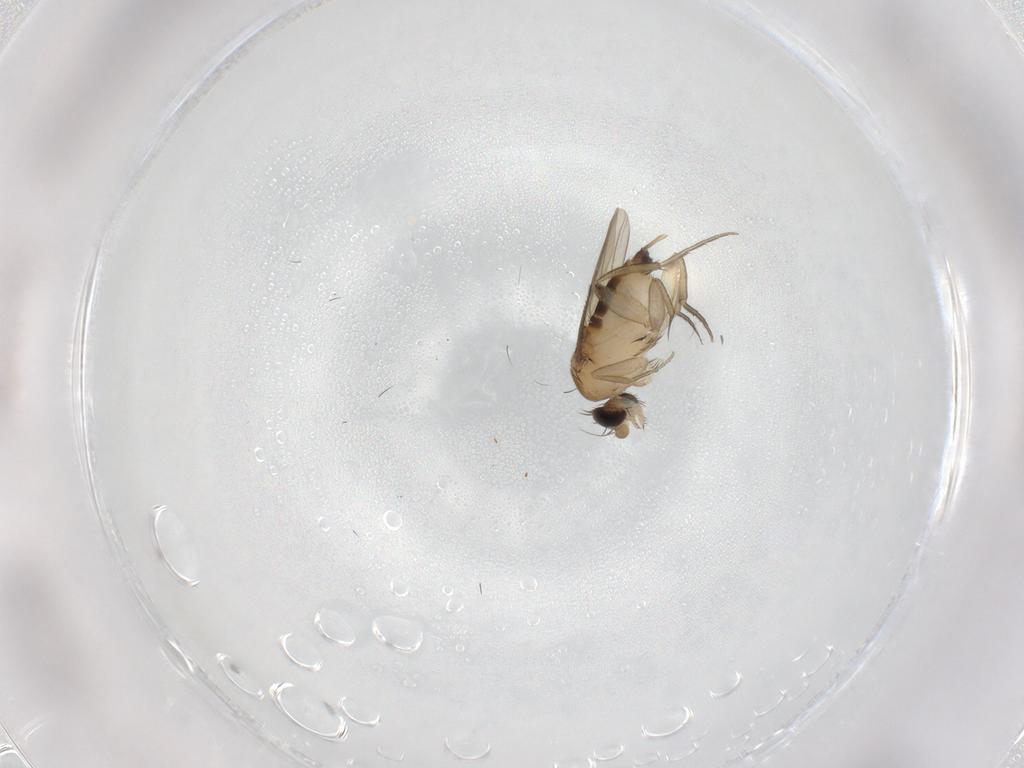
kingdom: Animalia
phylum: Arthropoda
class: Insecta
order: Diptera
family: Phoridae
